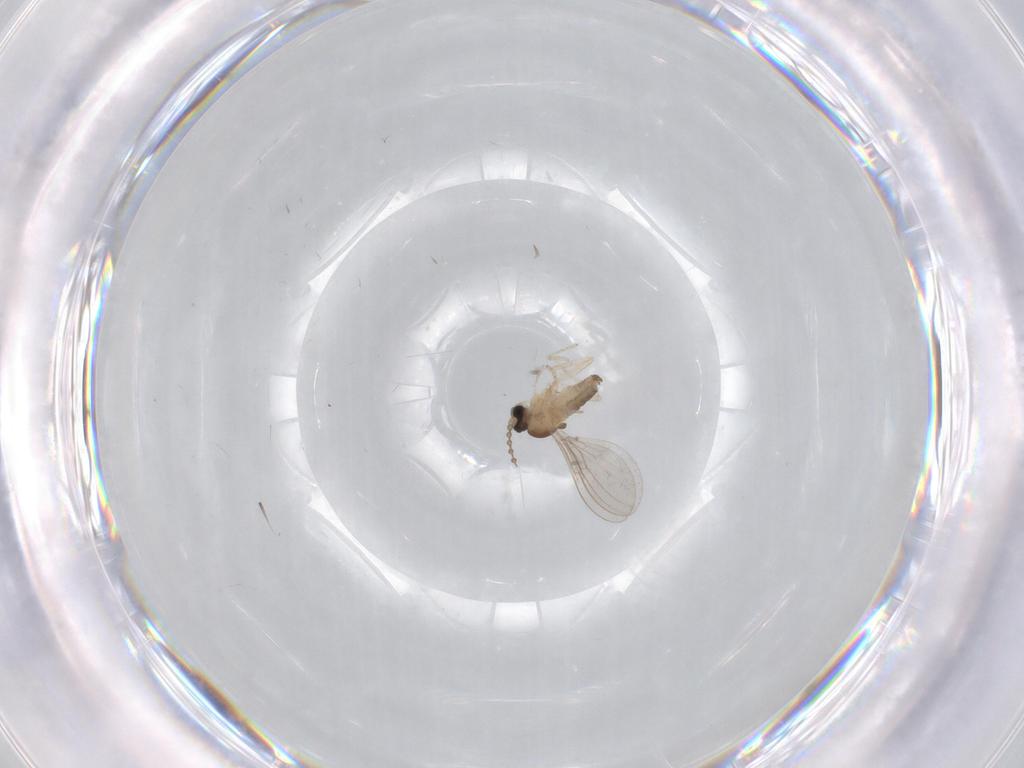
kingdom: Animalia
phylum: Arthropoda
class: Insecta
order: Diptera
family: Cecidomyiidae
